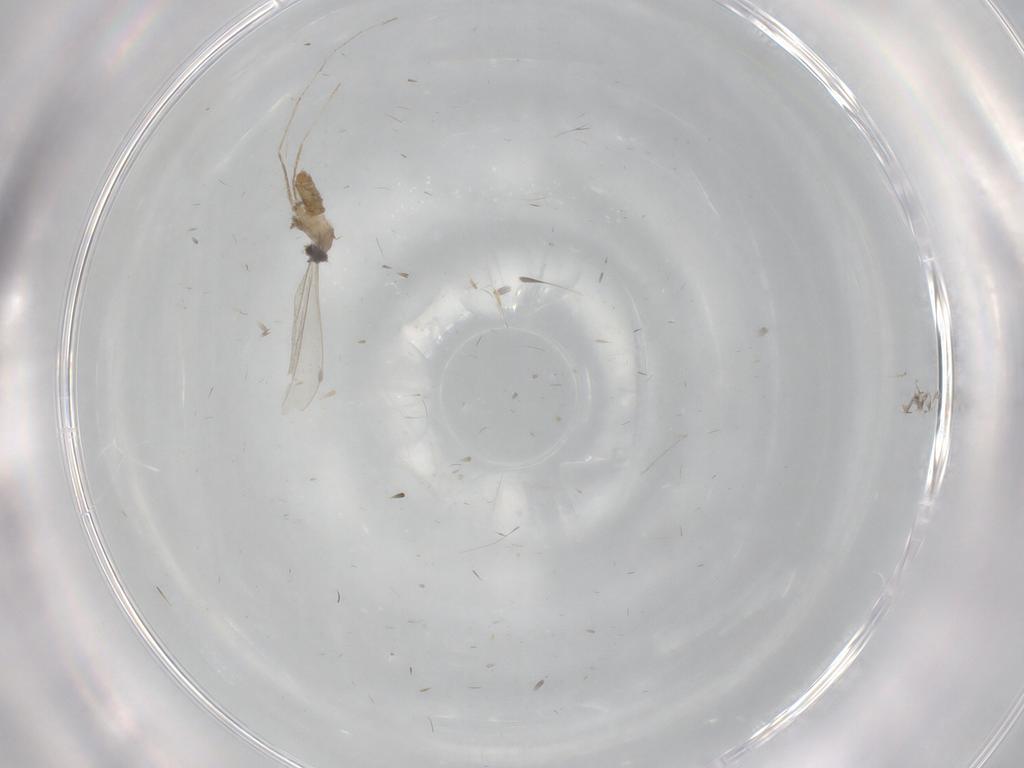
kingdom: Animalia
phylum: Arthropoda
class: Insecta
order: Diptera
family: Cecidomyiidae
